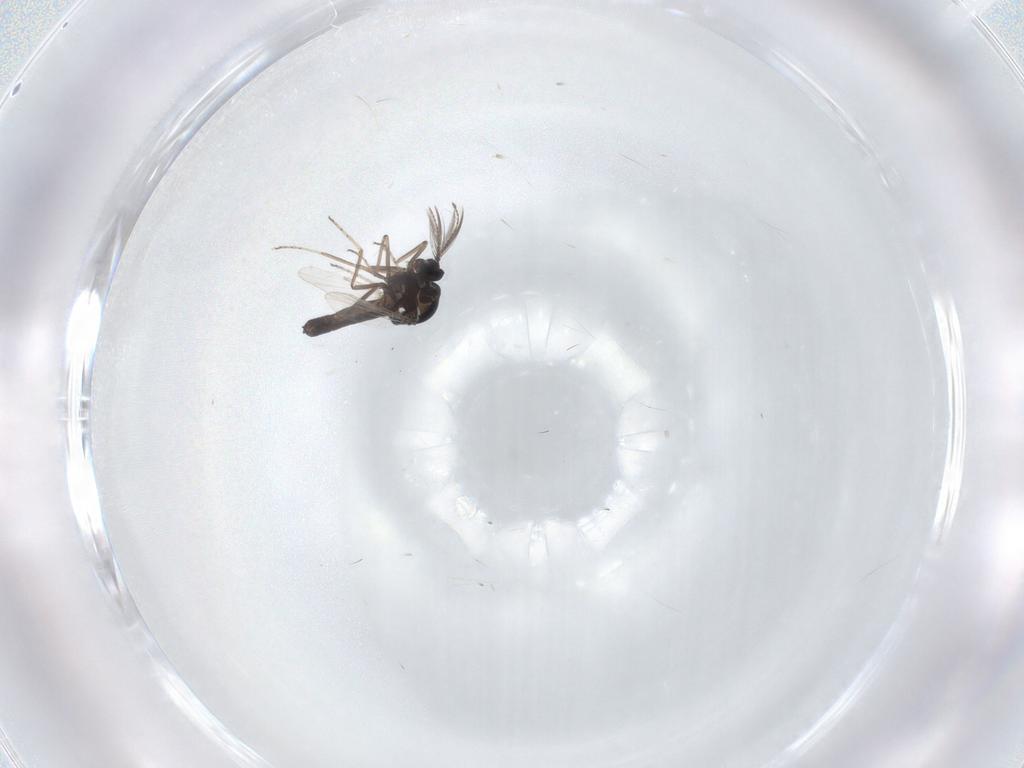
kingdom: Animalia
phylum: Arthropoda
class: Insecta
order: Diptera
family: Ceratopogonidae
